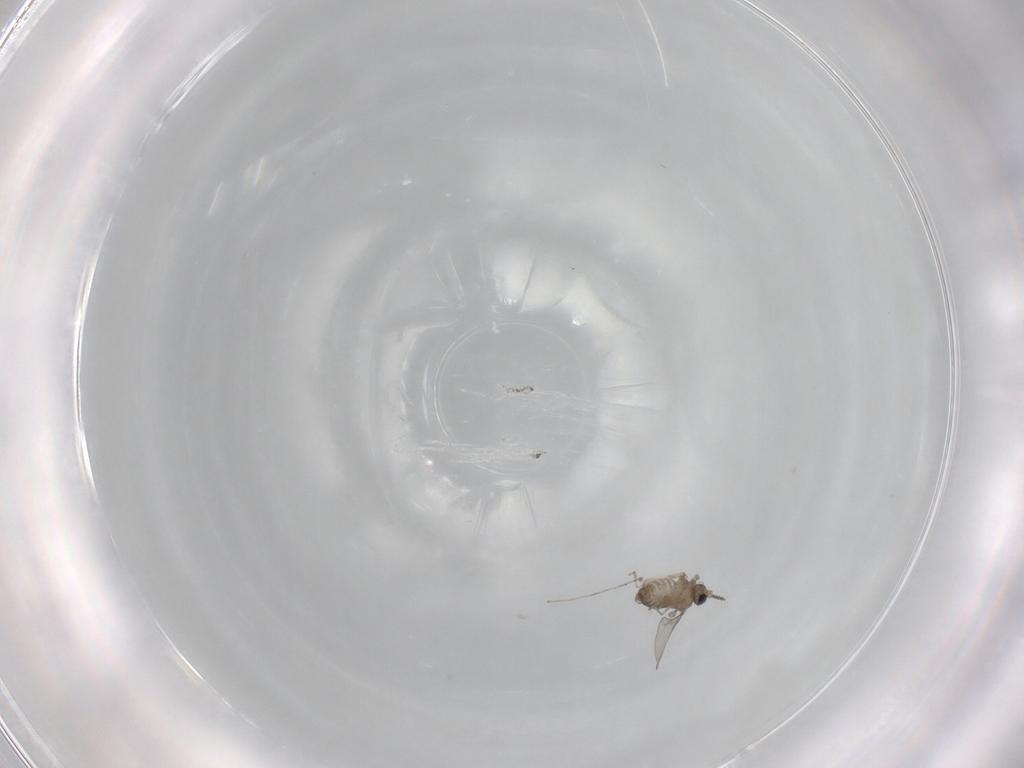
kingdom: Animalia
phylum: Arthropoda
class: Insecta
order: Diptera
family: Cecidomyiidae
